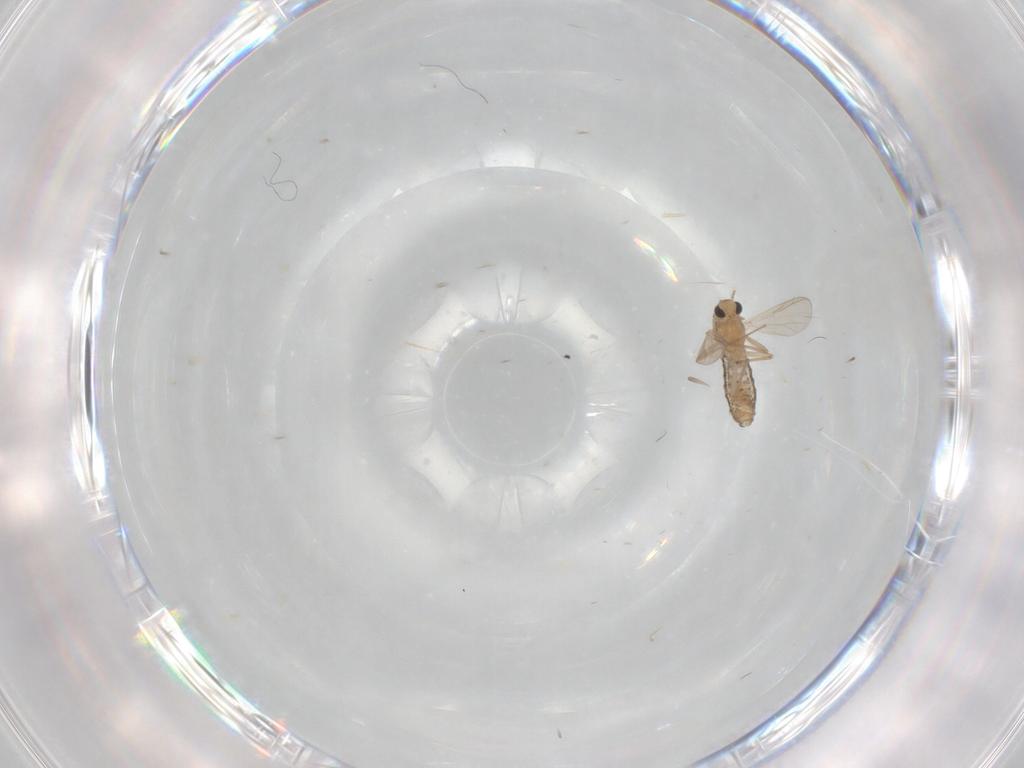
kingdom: Animalia
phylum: Arthropoda
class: Insecta
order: Diptera
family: Chironomidae
